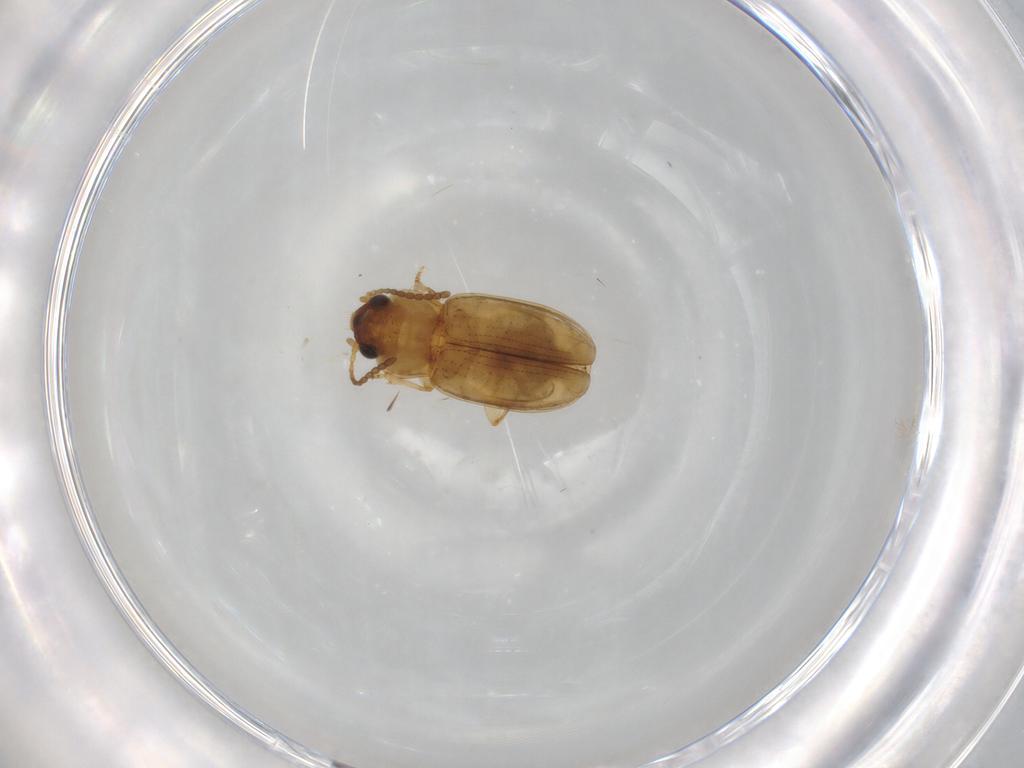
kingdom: Animalia
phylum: Arthropoda
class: Insecta
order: Coleoptera
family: Carabidae
